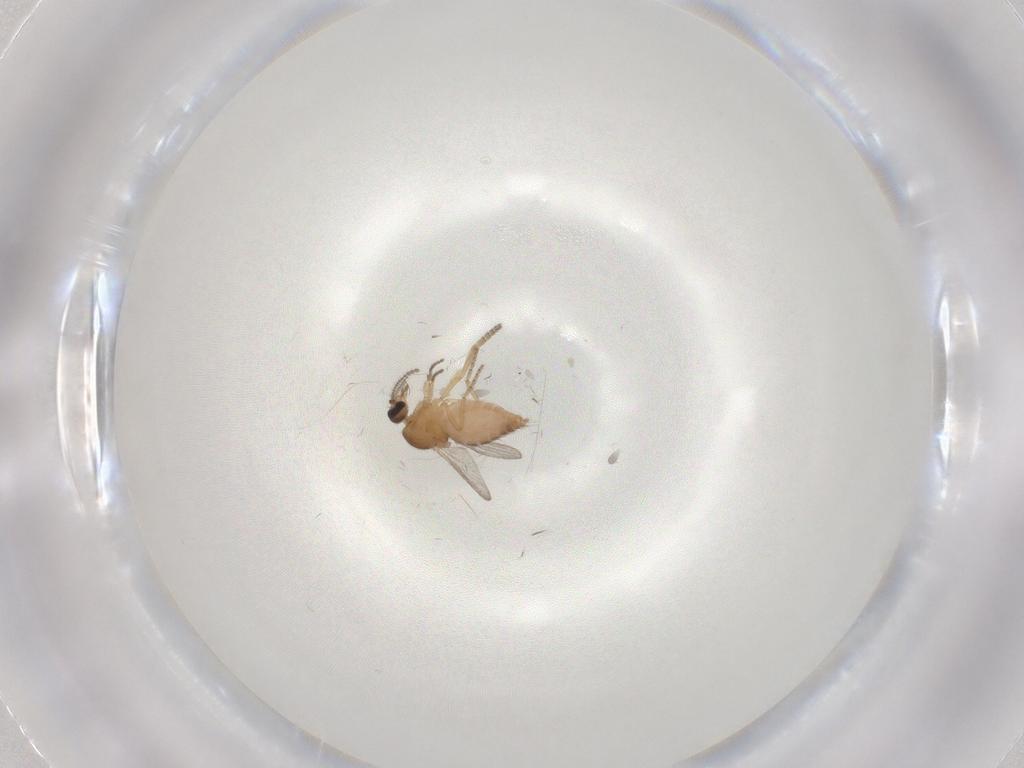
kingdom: Animalia
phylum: Arthropoda
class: Insecta
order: Diptera
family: Ceratopogonidae
